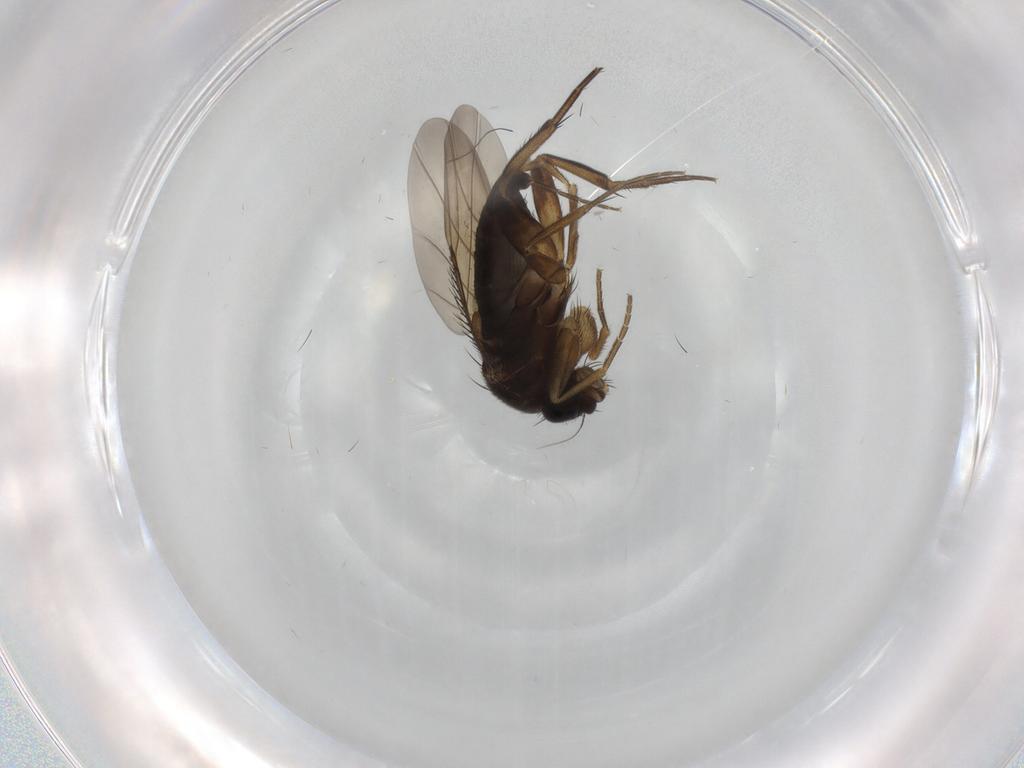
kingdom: Animalia
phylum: Arthropoda
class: Insecta
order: Diptera
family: Phoridae
